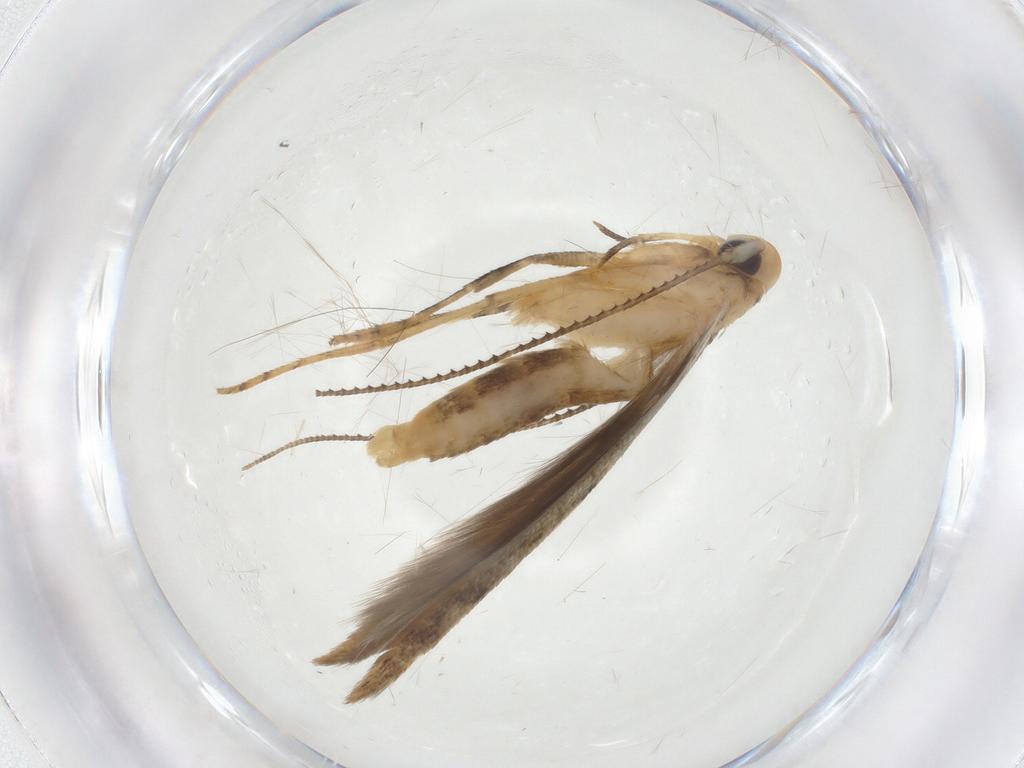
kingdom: Animalia
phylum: Arthropoda
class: Insecta
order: Lepidoptera
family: Erebidae
